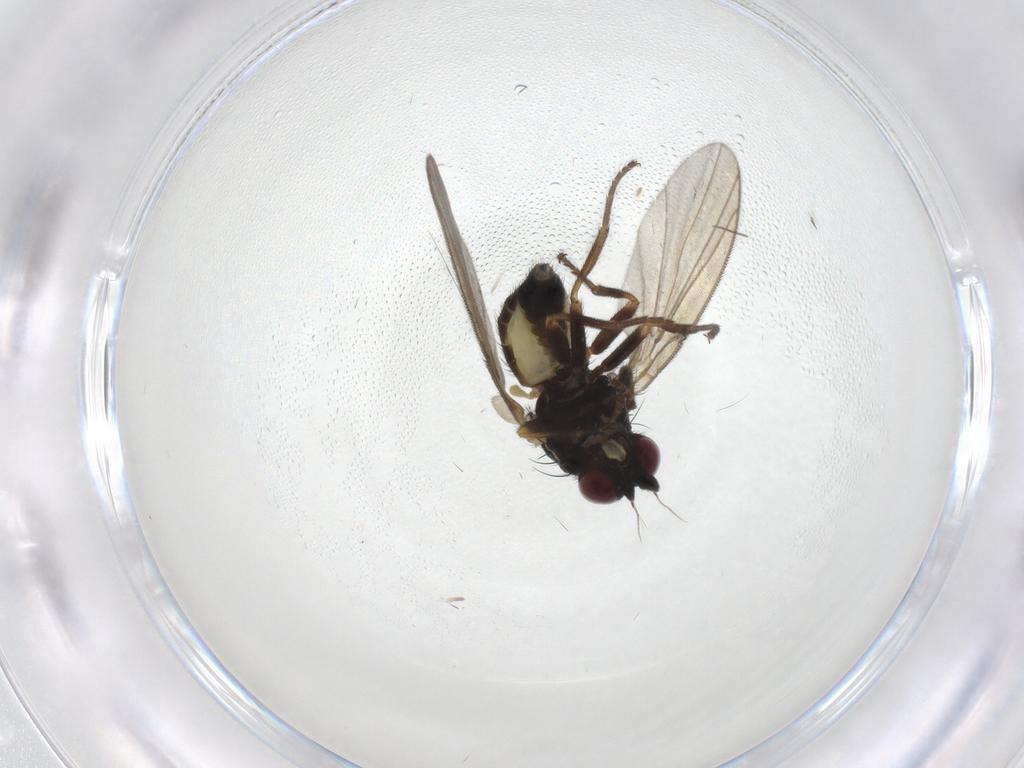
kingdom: Animalia
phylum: Arthropoda
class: Insecta
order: Diptera
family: Agromyzidae
